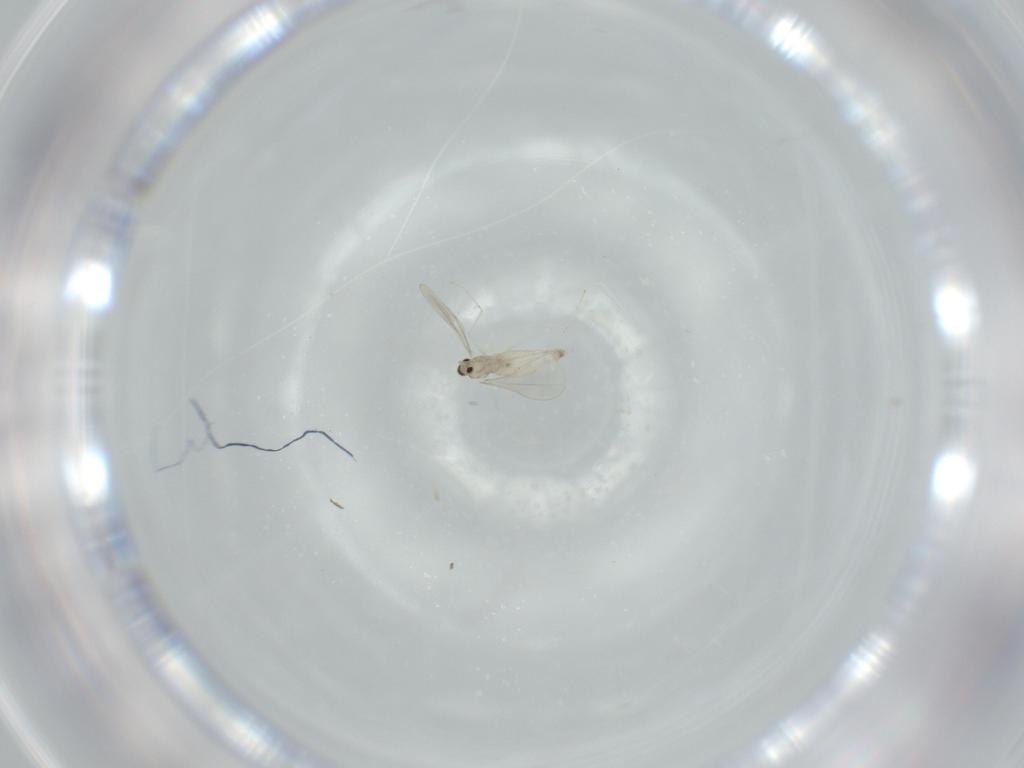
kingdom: Animalia
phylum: Arthropoda
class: Insecta
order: Diptera
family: Cecidomyiidae
